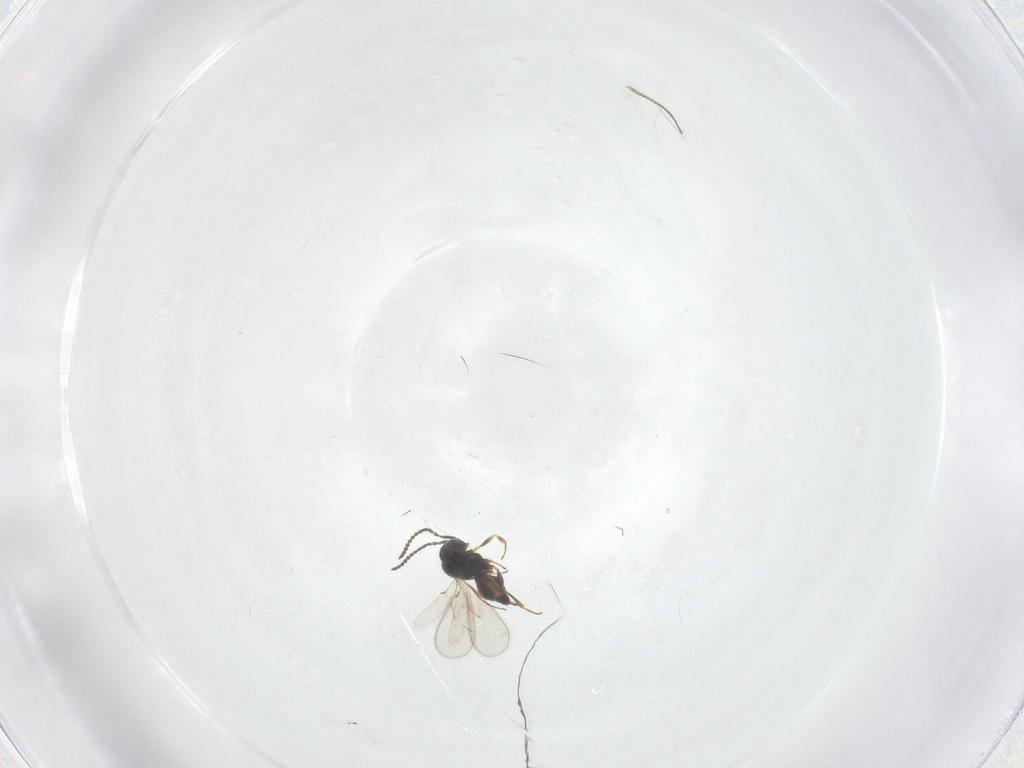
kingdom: Animalia
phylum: Arthropoda
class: Insecta
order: Hymenoptera
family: Scelionidae
